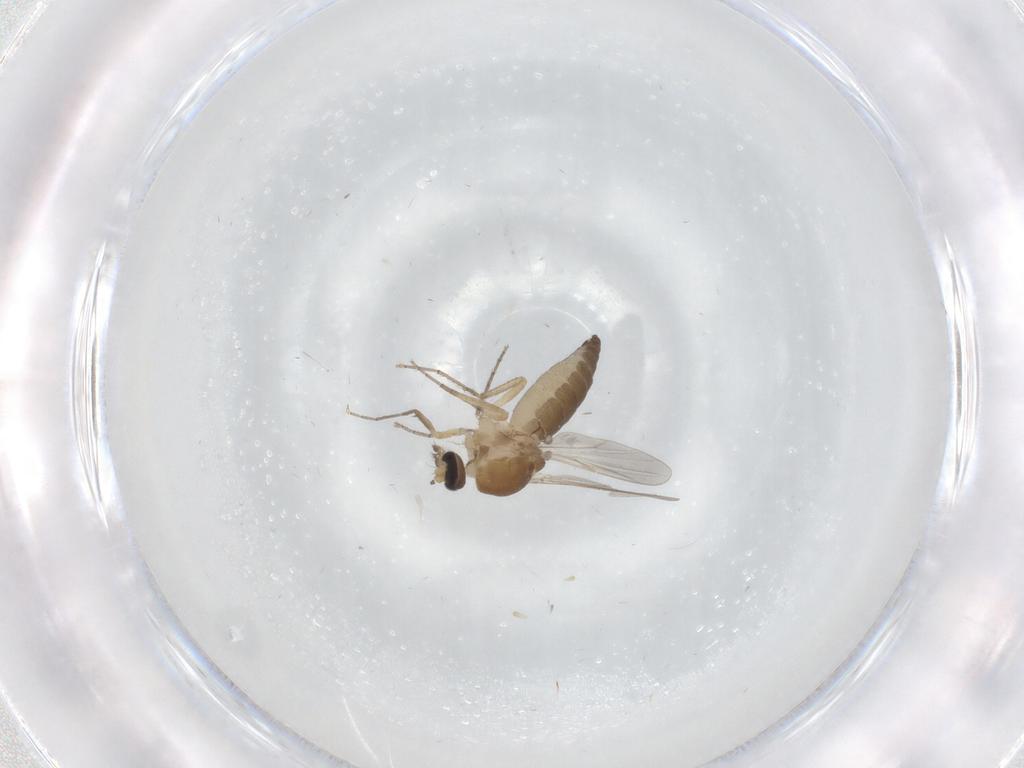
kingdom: Animalia
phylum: Arthropoda
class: Insecta
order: Diptera
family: Ceratopogonidae
